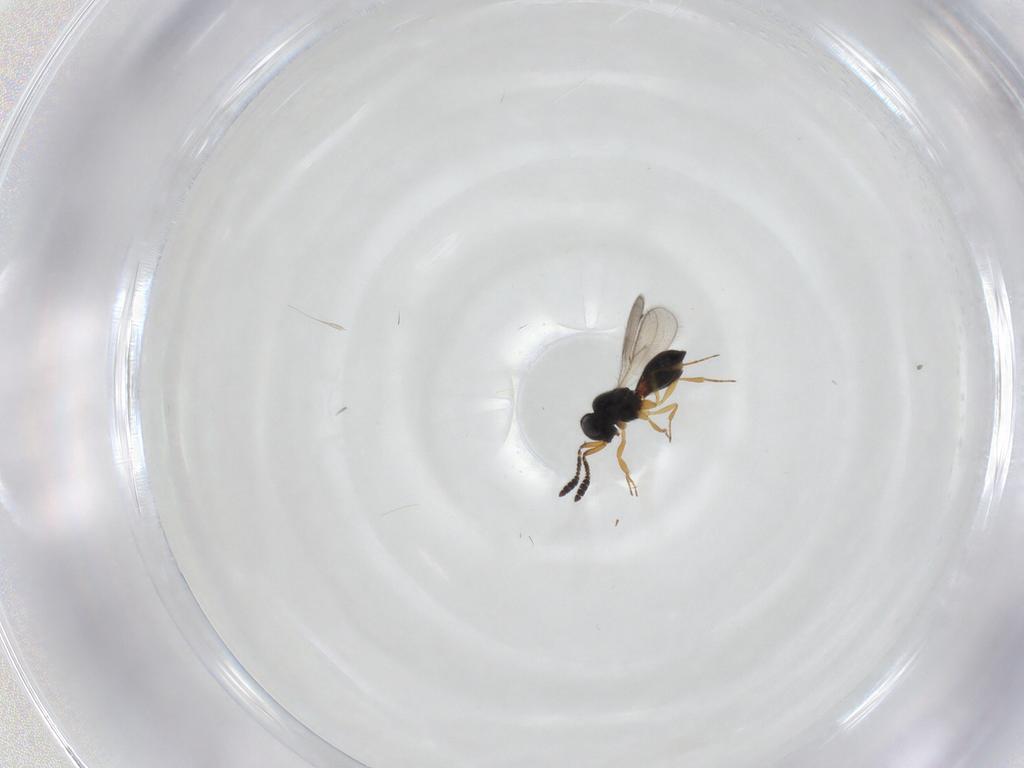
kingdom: Animalia
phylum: Arthropoda
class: Insecta
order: Hymenoptera
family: Scelionidae
